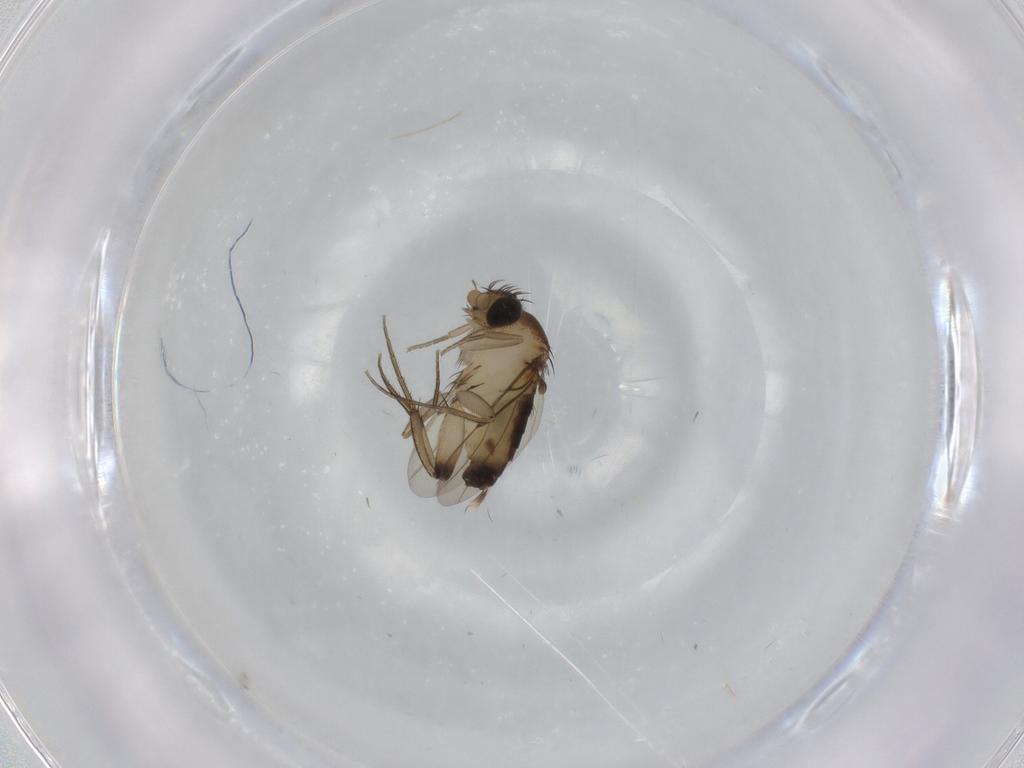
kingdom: Animalia
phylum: Arthropoda
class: Insecta
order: Diptera
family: Phoridae
